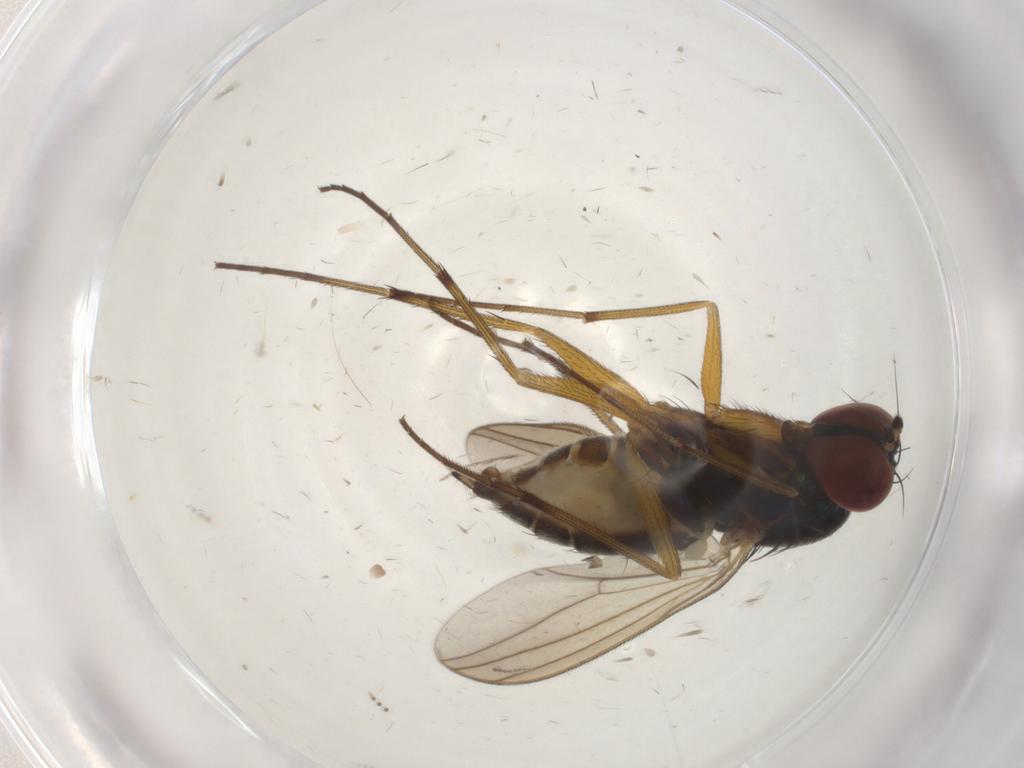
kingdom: Animalia
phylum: Arthropoda
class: Insecta
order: Diptera
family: Limoniidae
